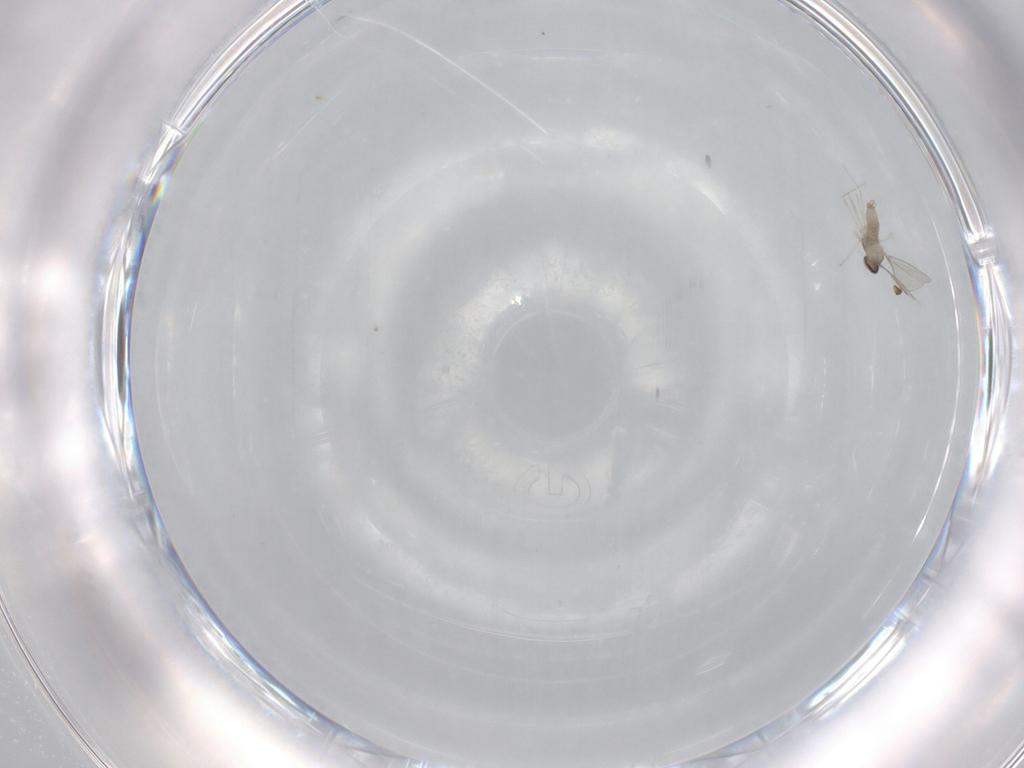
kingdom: Animalia
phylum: Arthropoda
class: Insecta
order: Diptera
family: Cecidomyiidae
